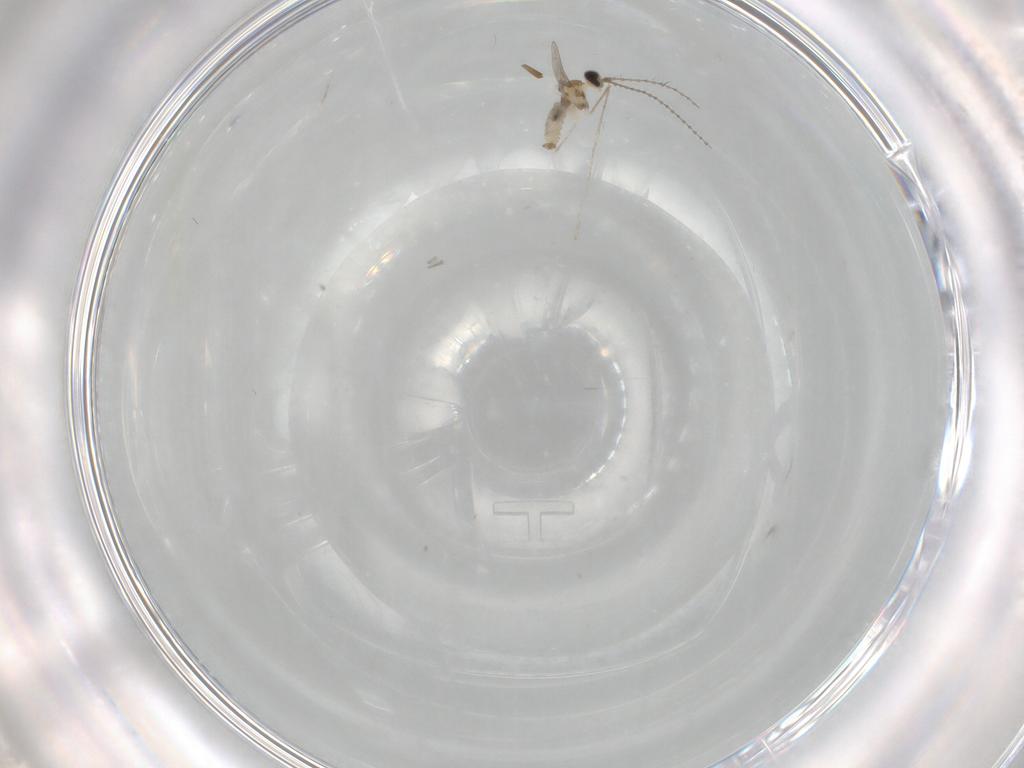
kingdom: Animalia
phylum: Arthropoda
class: Insecta
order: Diptera
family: Cecidomyiidae
